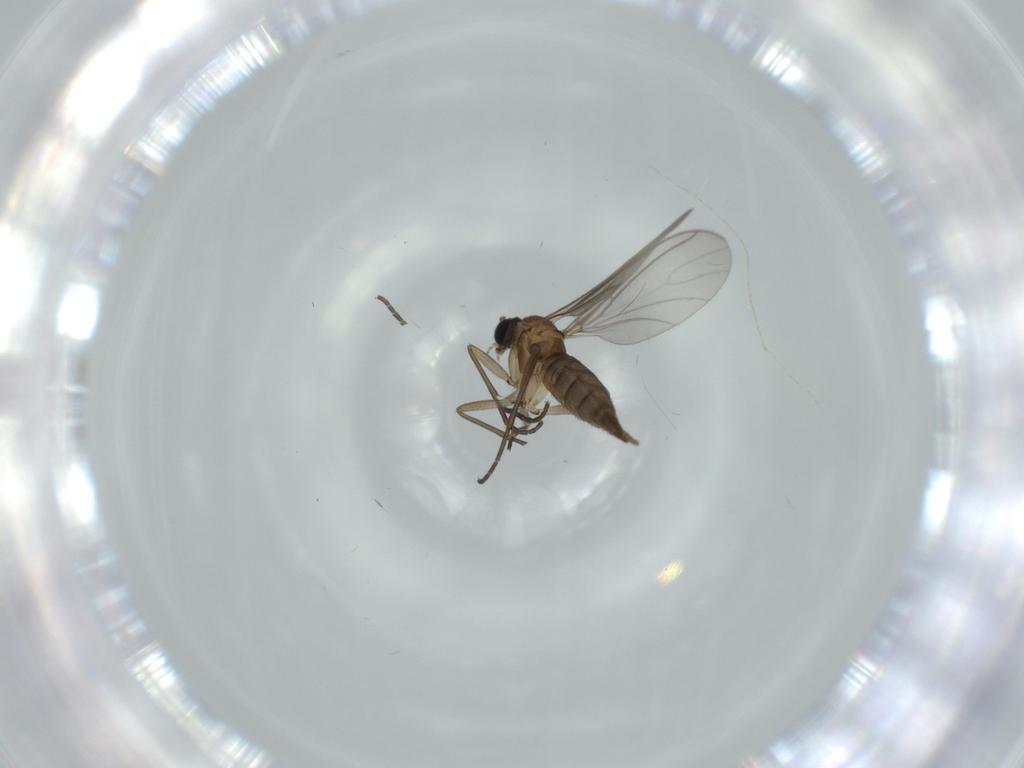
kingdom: Animalia
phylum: Arthropoda
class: Insecta
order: Diptera
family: Sciaridae
